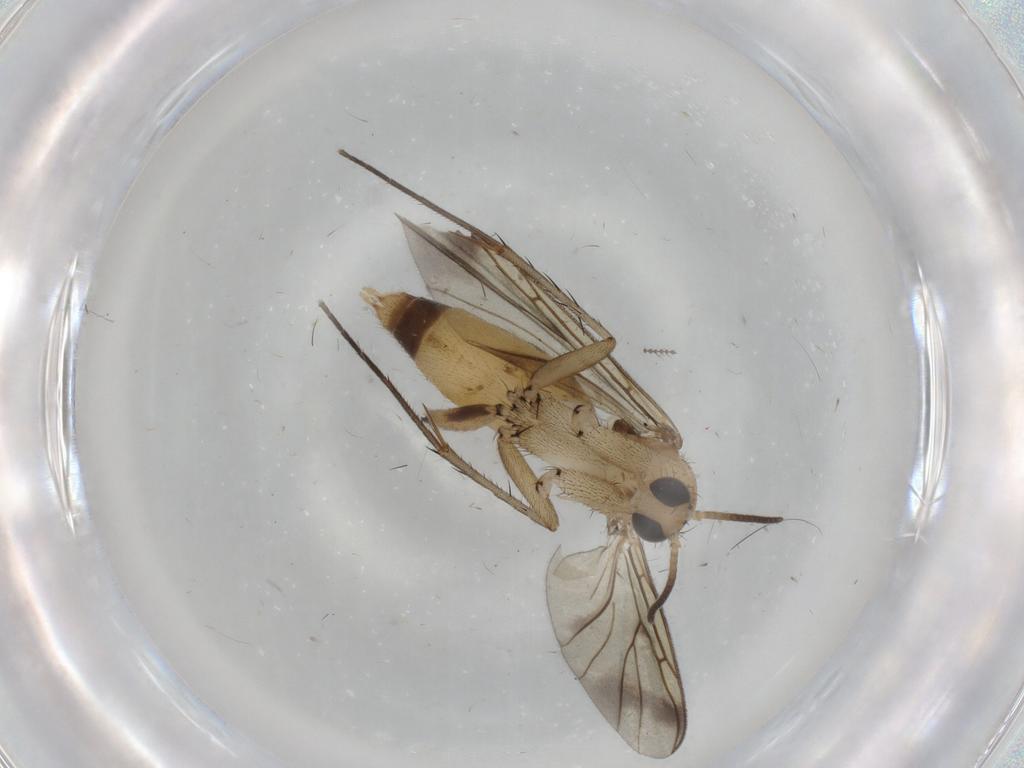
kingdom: Animalia
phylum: Arthropoda
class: Insecta
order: Diptera
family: Mycetophilidae
